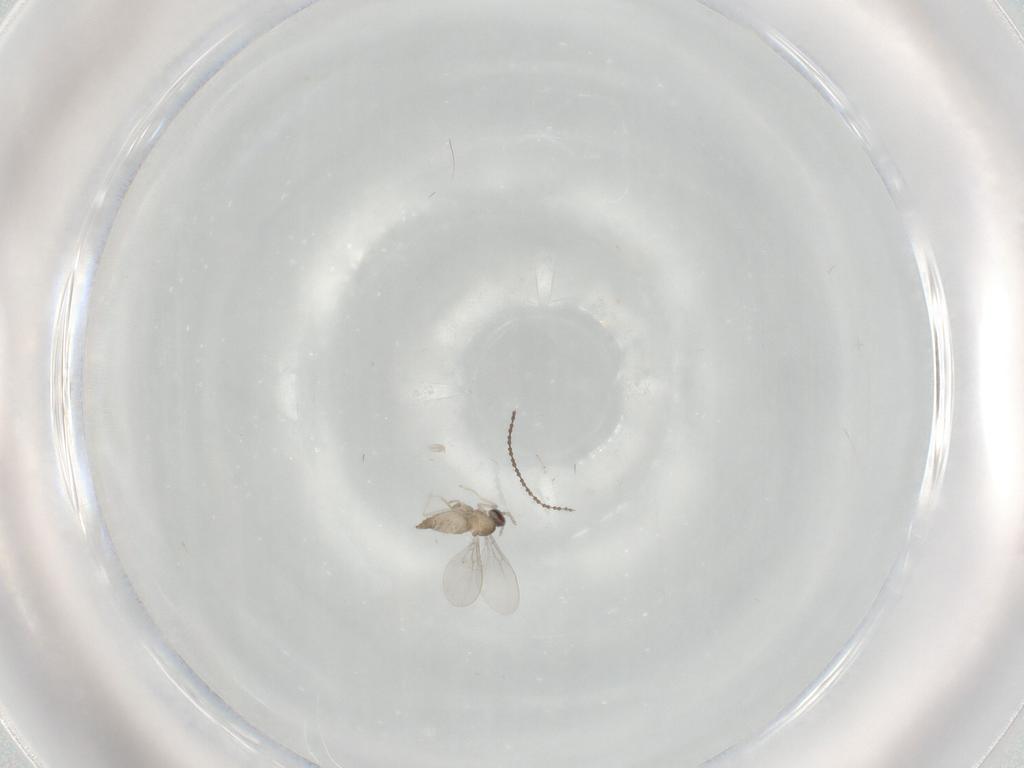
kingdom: Animalia
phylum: Arthropoda
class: Insecta
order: Diptera
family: Cecidomyiidae
